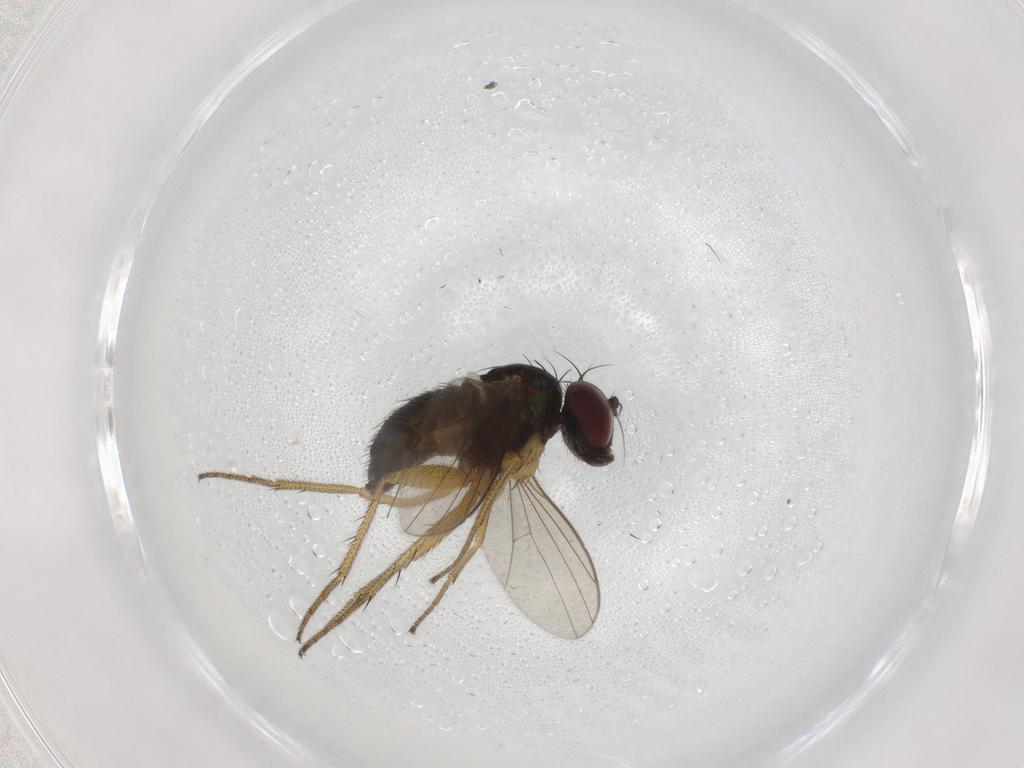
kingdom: Animalia
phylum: Arthropoda
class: Insecta
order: Diptera
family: Dolichopodidae
